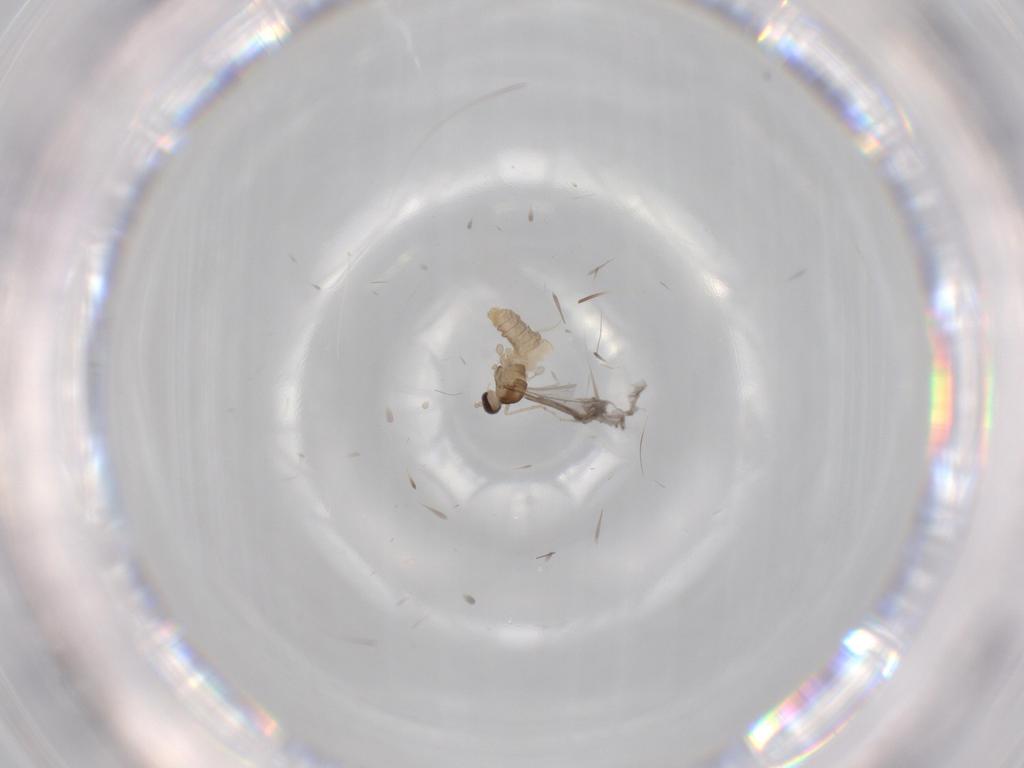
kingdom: Animalia
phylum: Arthropoda
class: Insecta
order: Diptera
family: Cecidomyiidae
